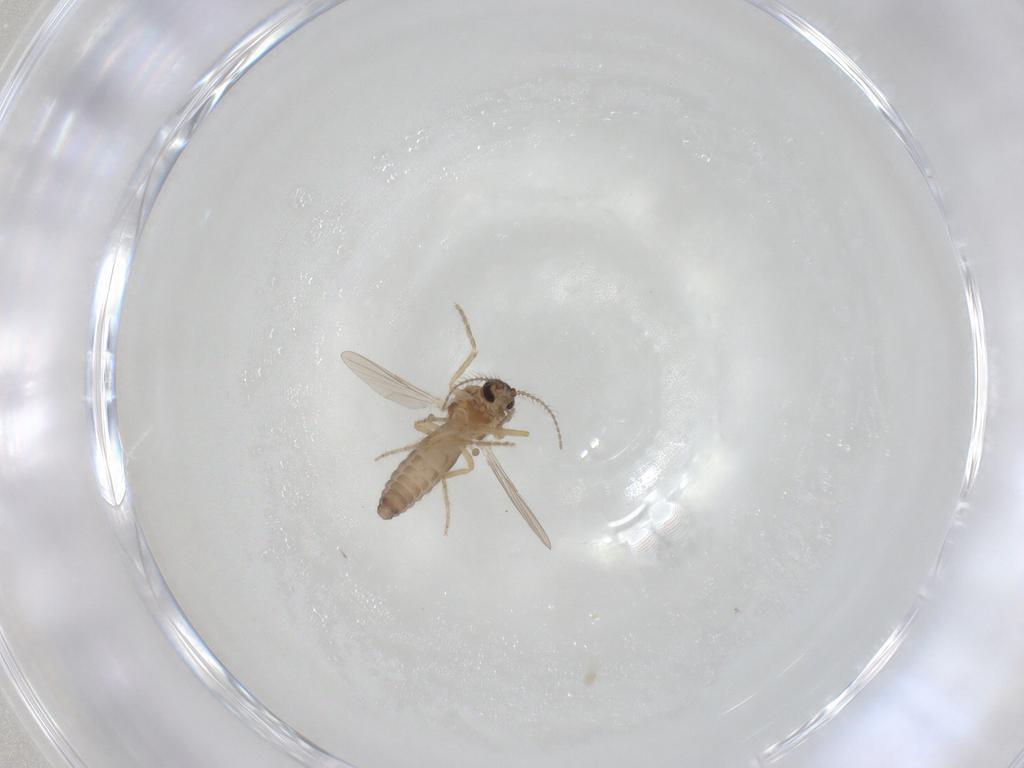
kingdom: Animalia
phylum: Arthropoda
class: Insecta
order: Diptera
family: Ceratopogonidae
